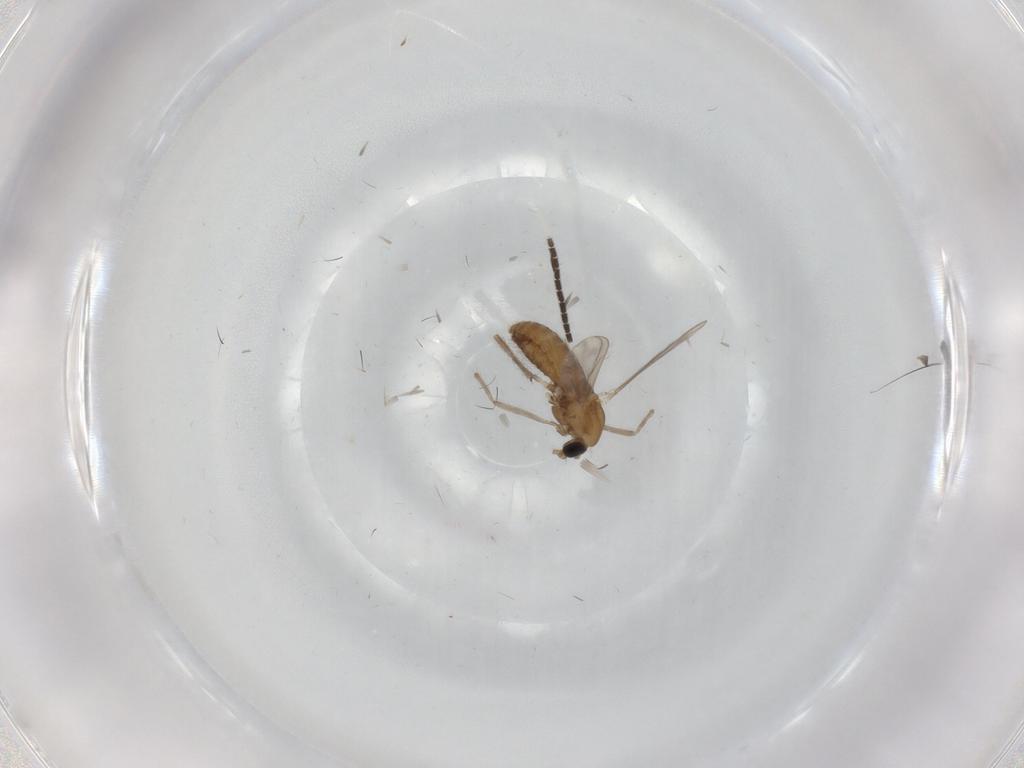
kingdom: Animalia
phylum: Arthropoda
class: Insecta
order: Diptera
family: Sciaridae
